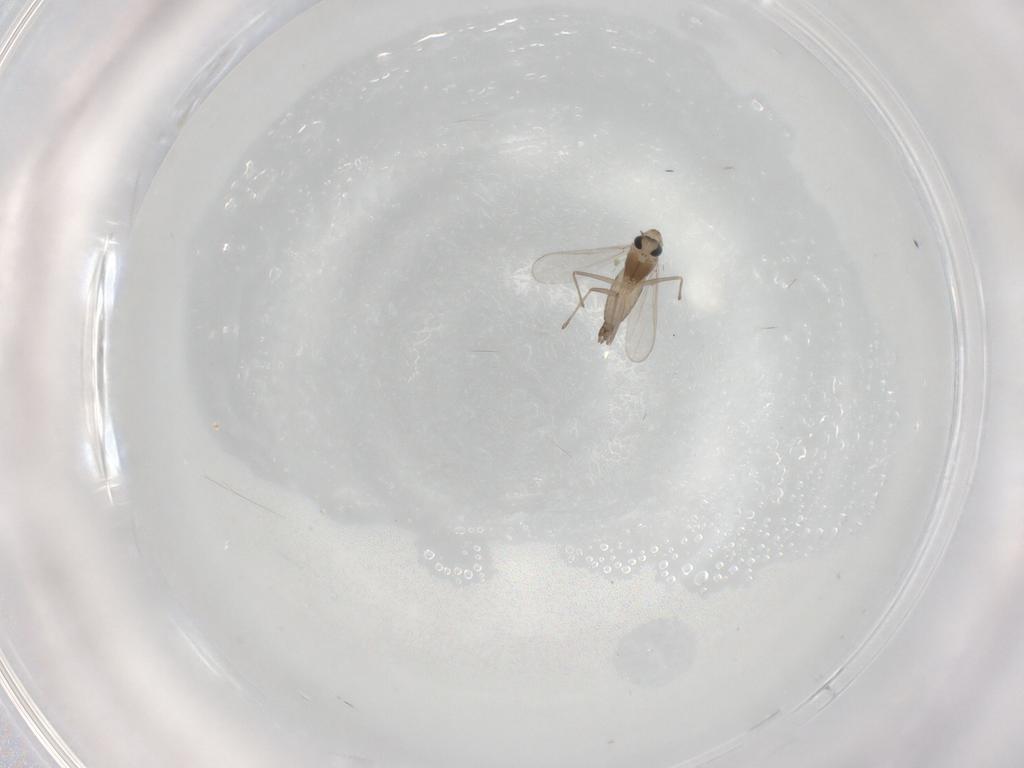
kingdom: Animalia
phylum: Arthropoda
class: Insecta
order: Diptera
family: Chironomidae
